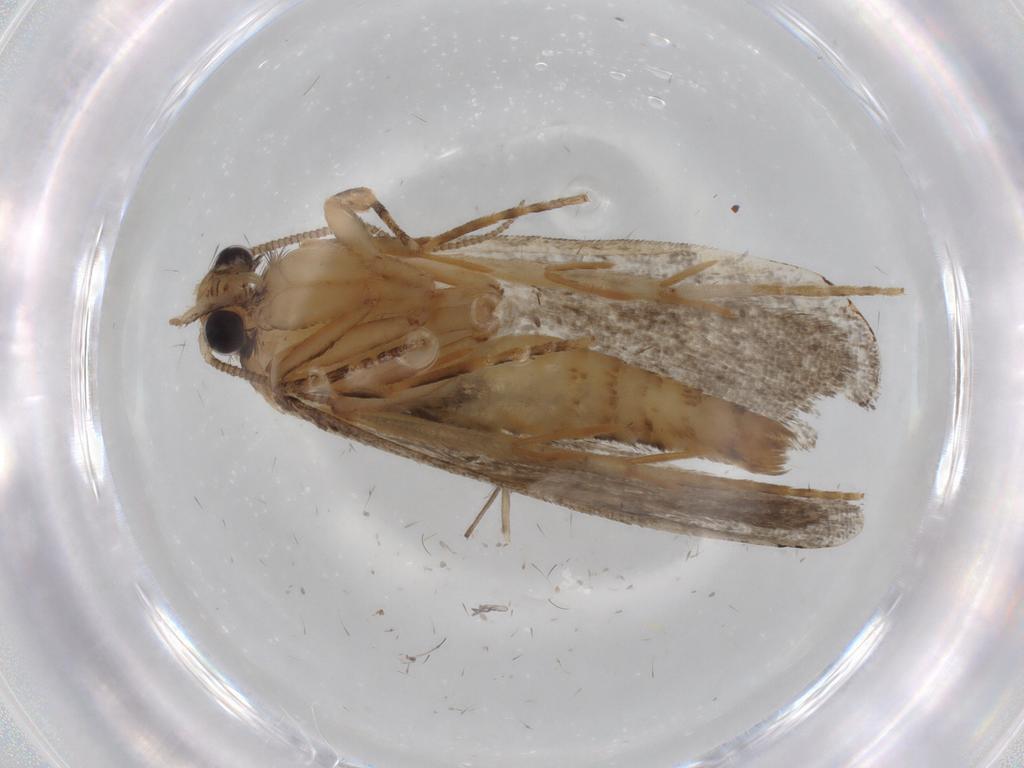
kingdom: Animalia
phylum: Arthropoda
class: Insecta
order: Lepidoptera
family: Tineidae
